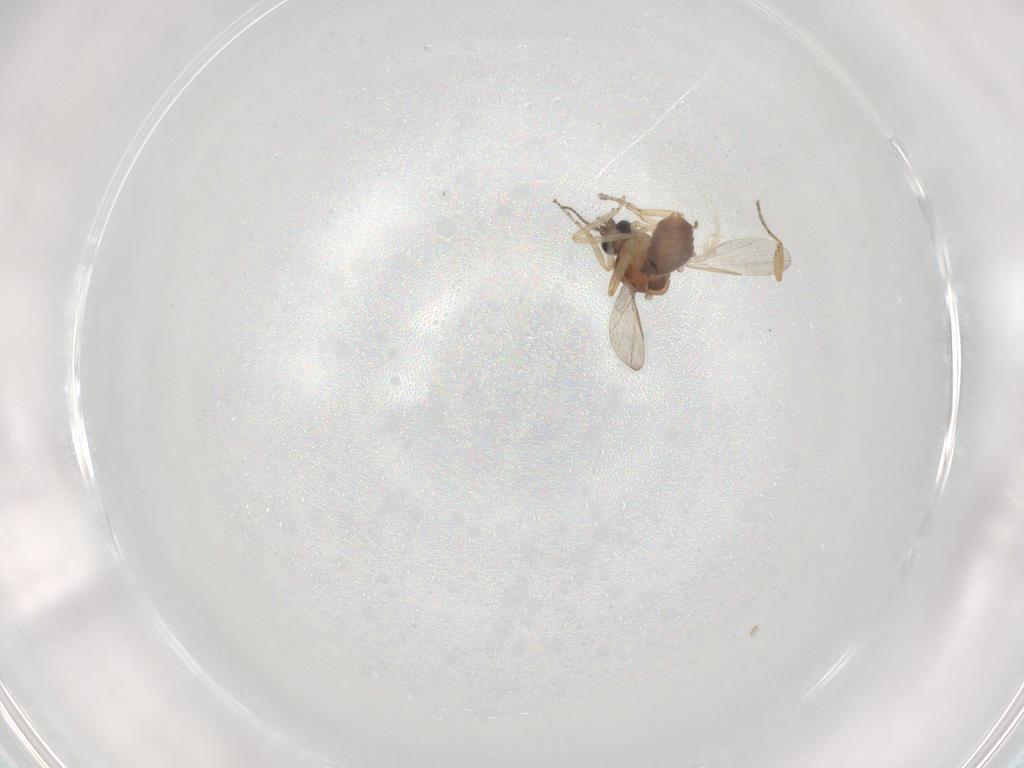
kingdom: Animalia
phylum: Arthropoda
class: Insecta
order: Diptera
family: Ceratopogonidae
